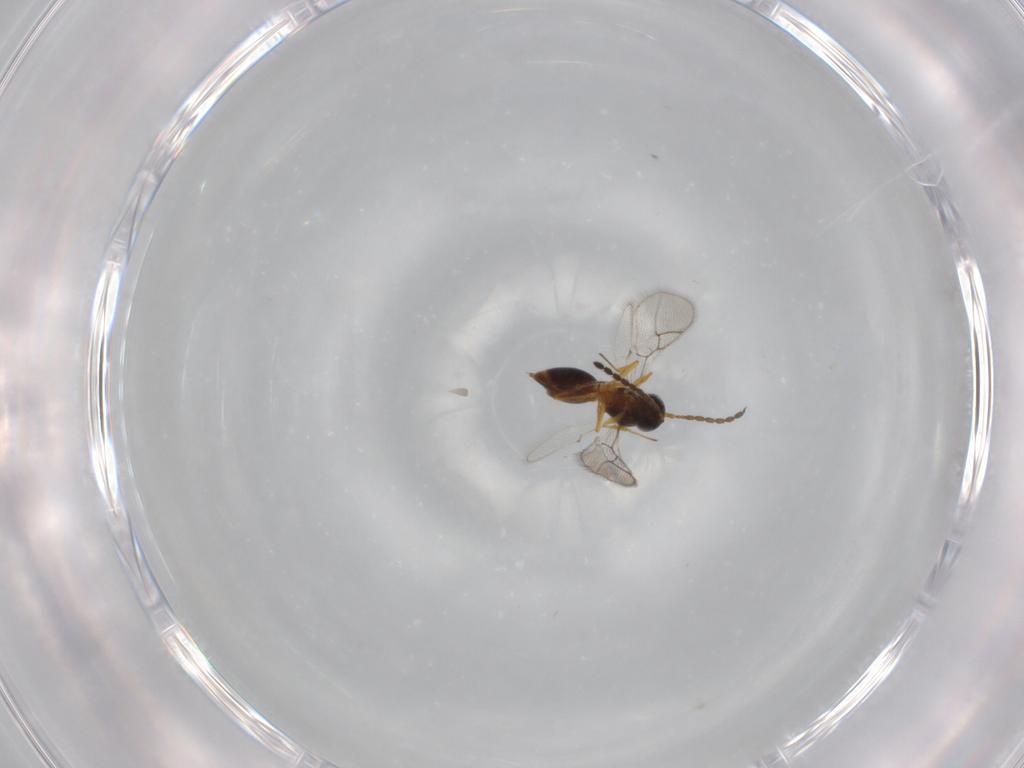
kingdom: Animalia
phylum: Arthropoda
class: Insecta
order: Hymenoptera
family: Figitidae
